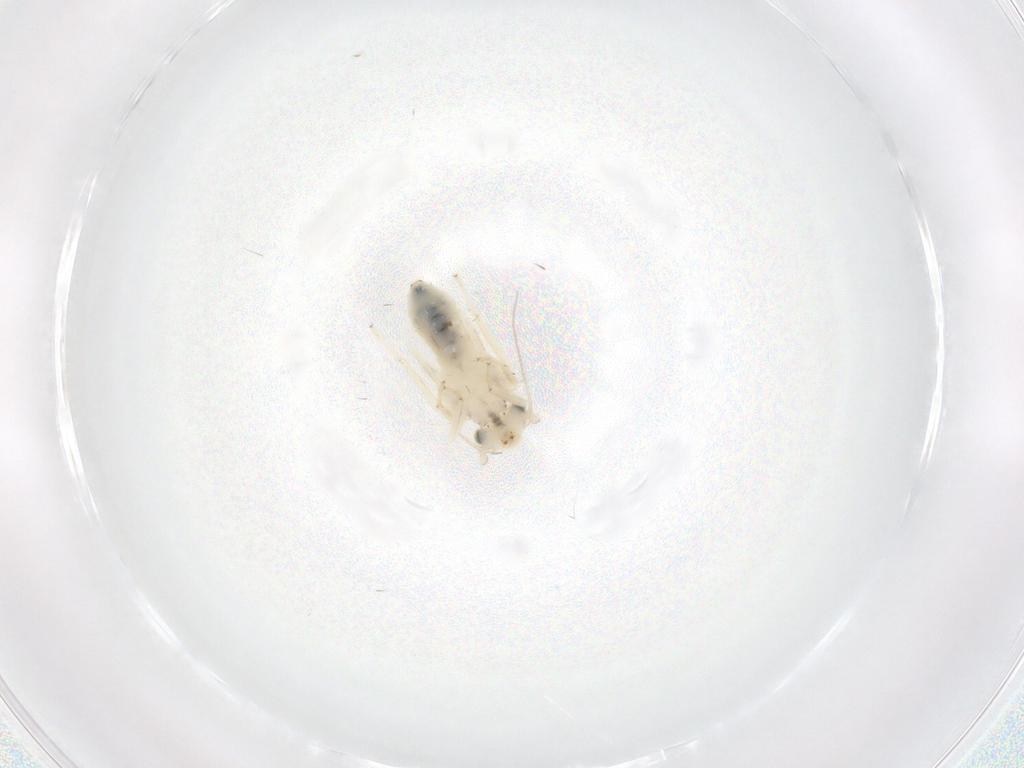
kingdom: Animalia
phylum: Arthropoda
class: Insecta
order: Psocodea
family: Lepidopsocidae
